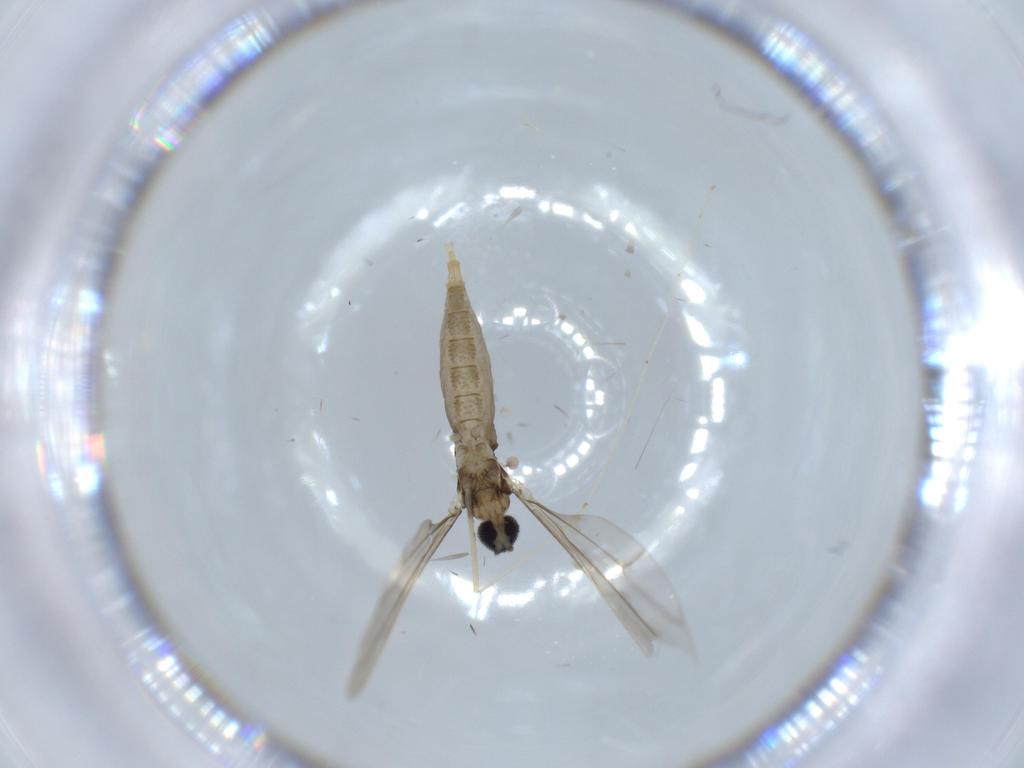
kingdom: Animalia
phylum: Arthropoda
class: Insecta
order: Diptera
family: Cecidomyiidae
